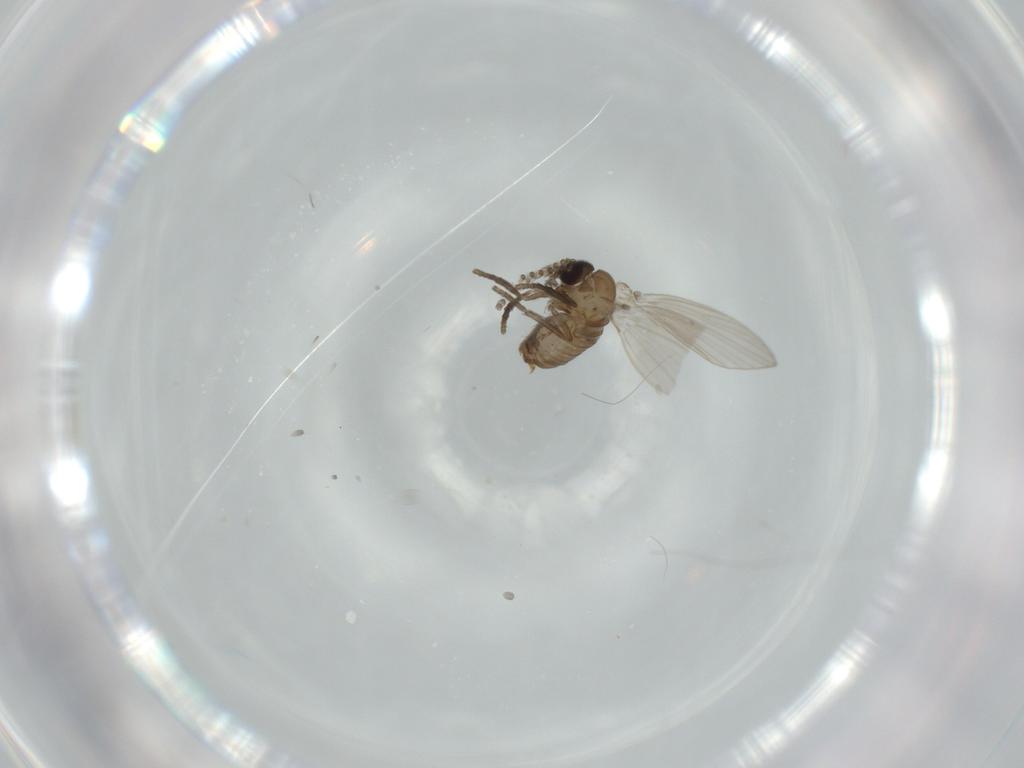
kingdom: Animalia
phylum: Arthropoda
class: Insecta
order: Diptera
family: Psychodidae
